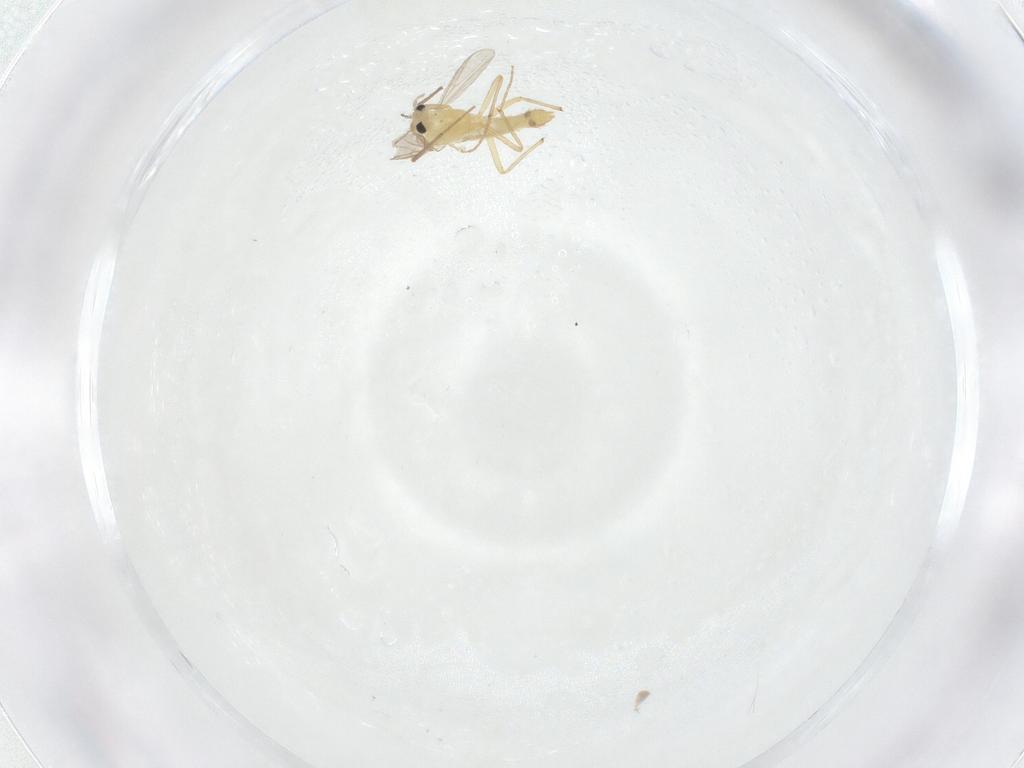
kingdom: Animalia
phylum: Arthropoda
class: Insecta
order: Diptera
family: Chironomidae
